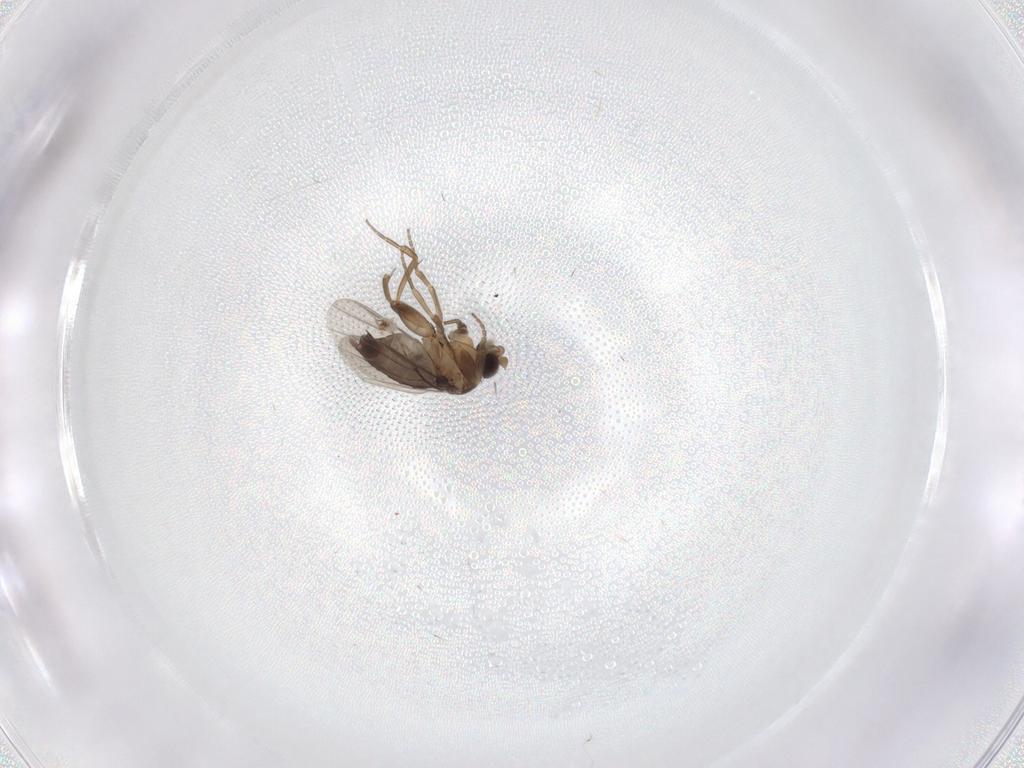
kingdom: Animalia
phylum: Arthropoda
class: Insecta
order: Diptera
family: Phoridae
